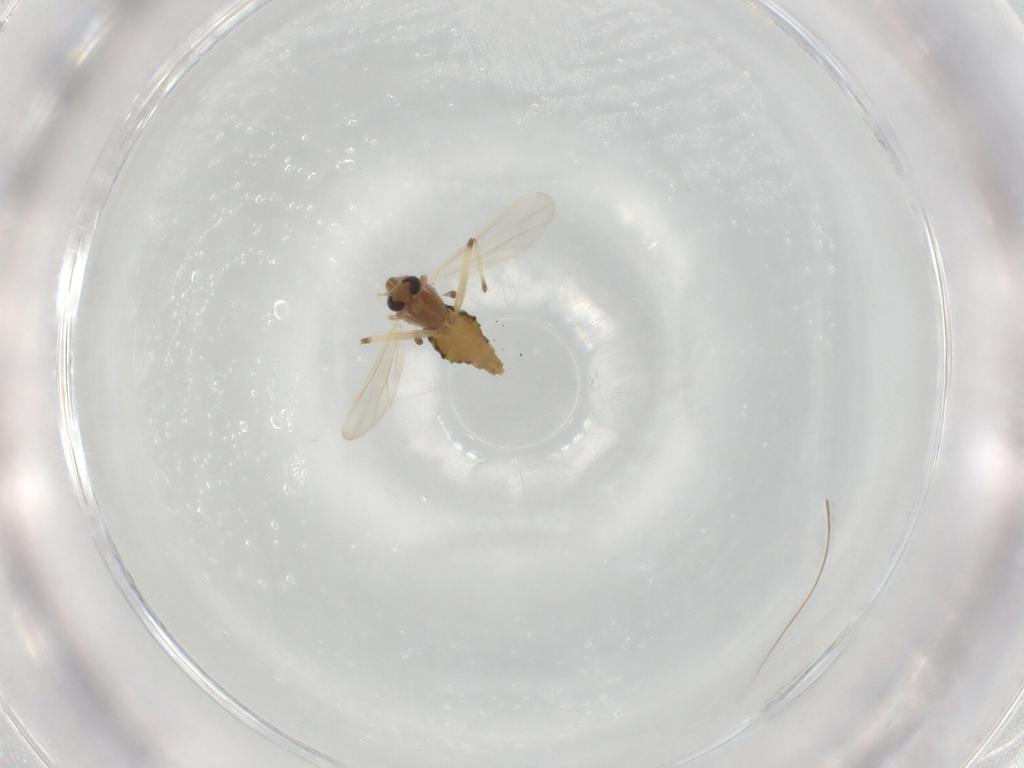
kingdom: Animalia
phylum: Arthropoda
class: Insecta
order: Diptera
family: Chironomidae
